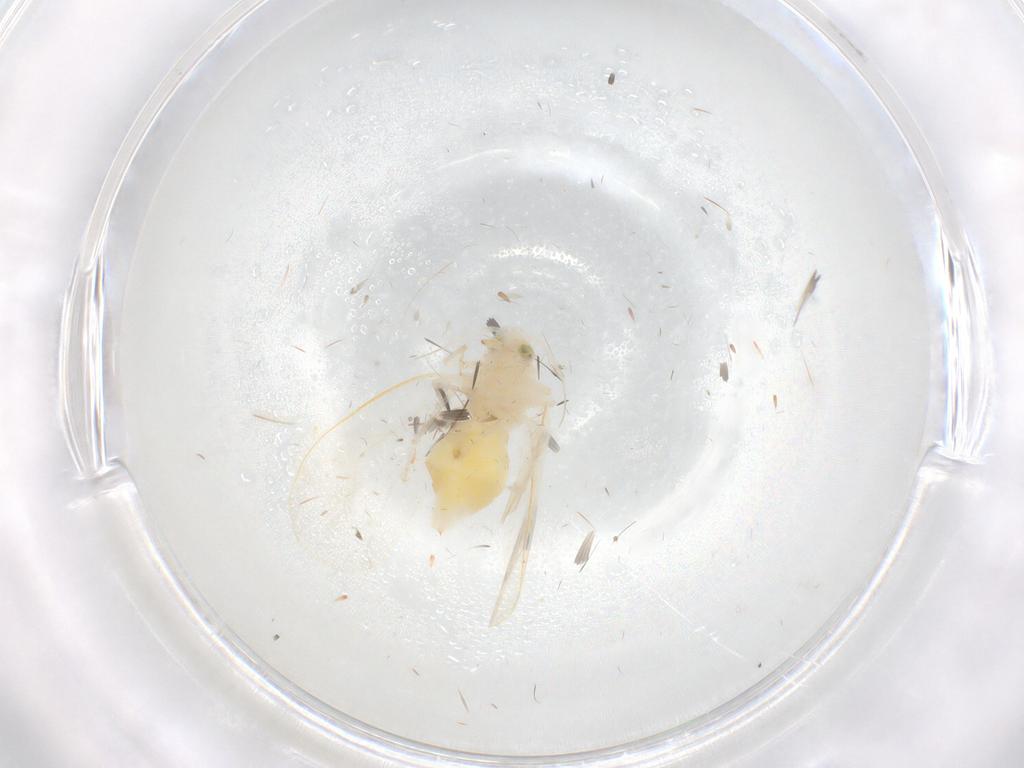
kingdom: Animalia
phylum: Arthropoda
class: Insecta
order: Hemiptera
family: Aleyrodidae
